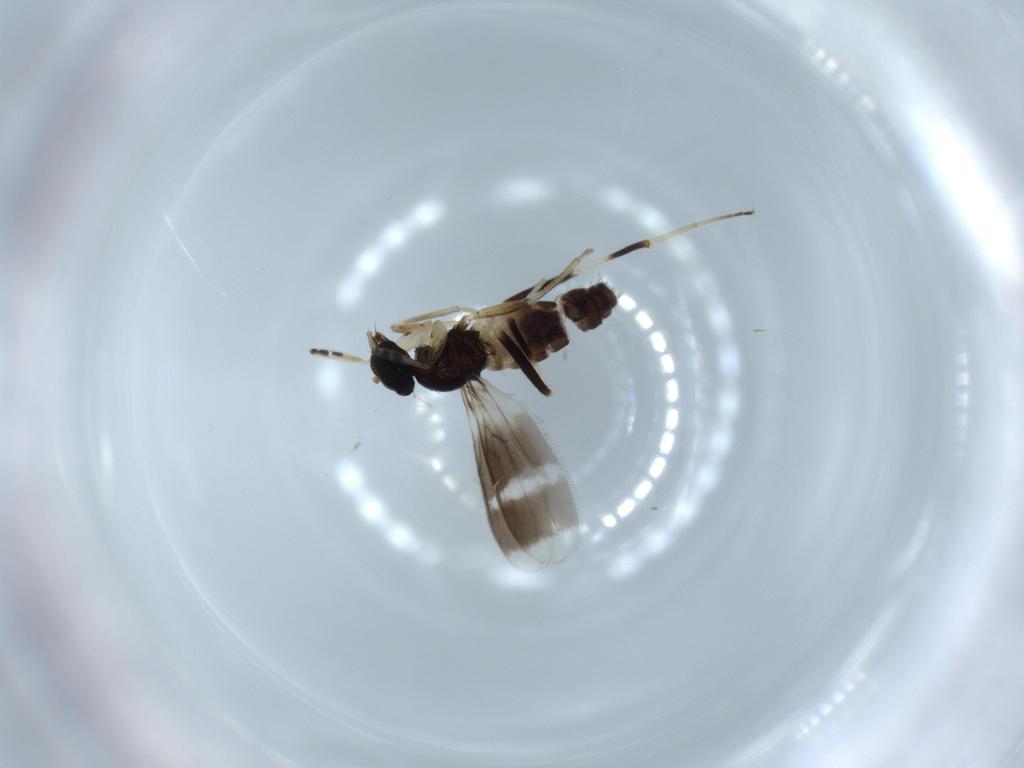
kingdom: Animalia
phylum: Arthropoda
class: Insecta
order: Diptera
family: Hybotidae
